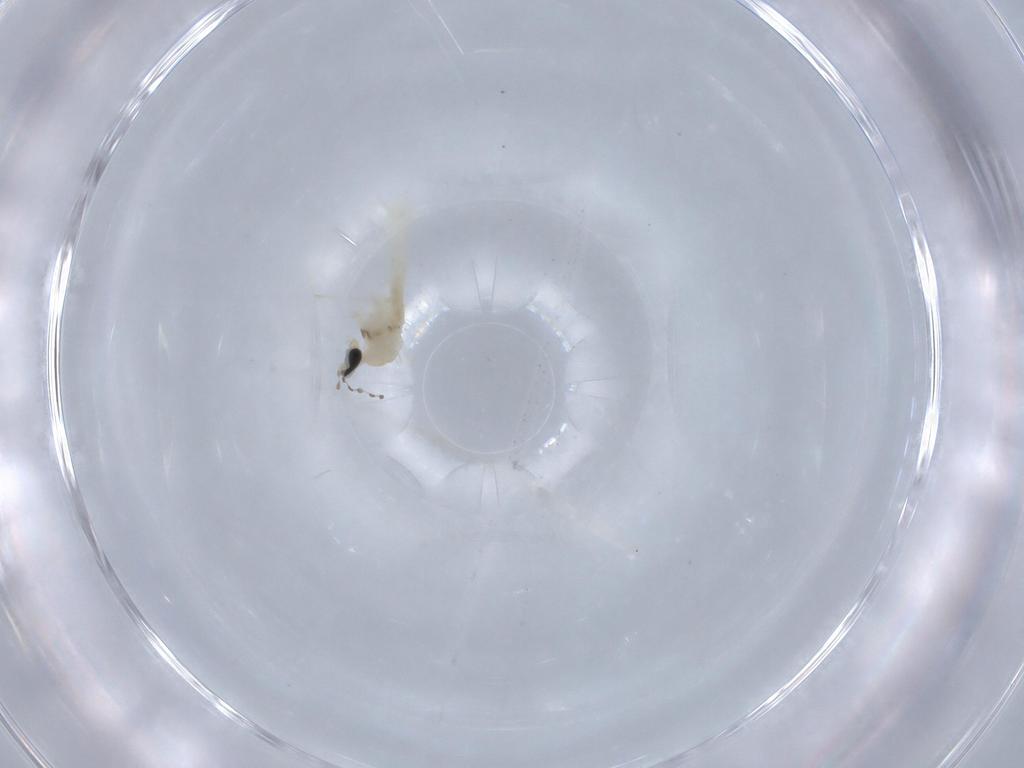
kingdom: Animalia
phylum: Arthropoda
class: Insecta
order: Diptera
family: Cecidomyiidae
